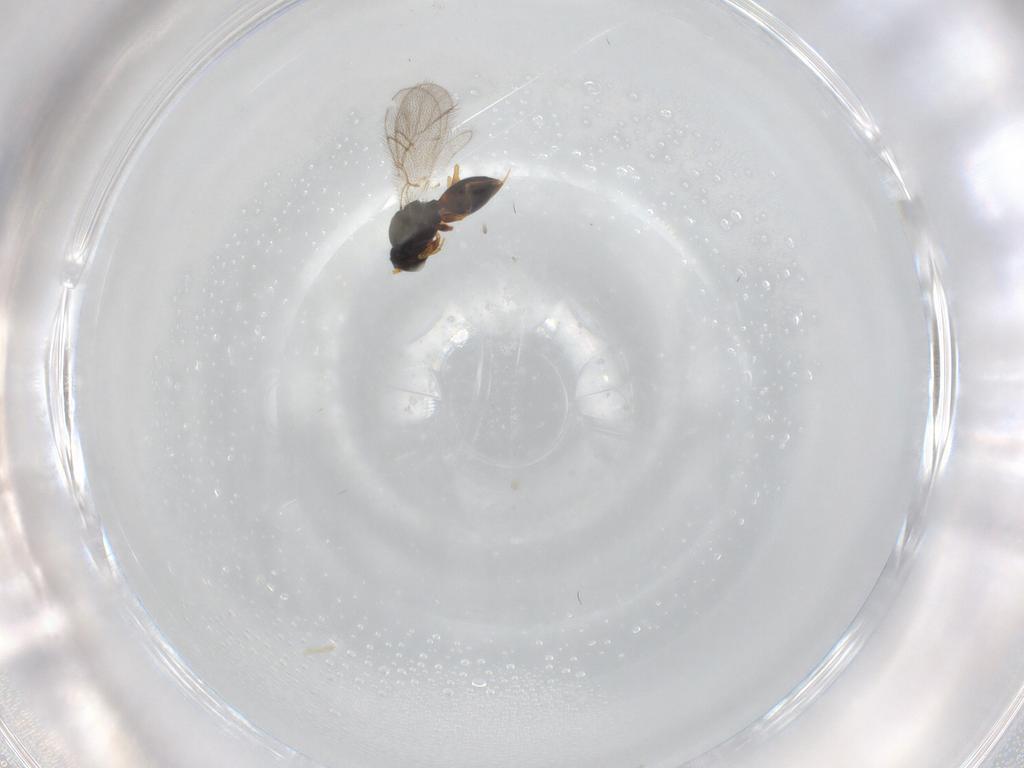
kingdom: Animalia
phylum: Arthropoda
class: Insecta
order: Hymenoptera
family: Figitidae
